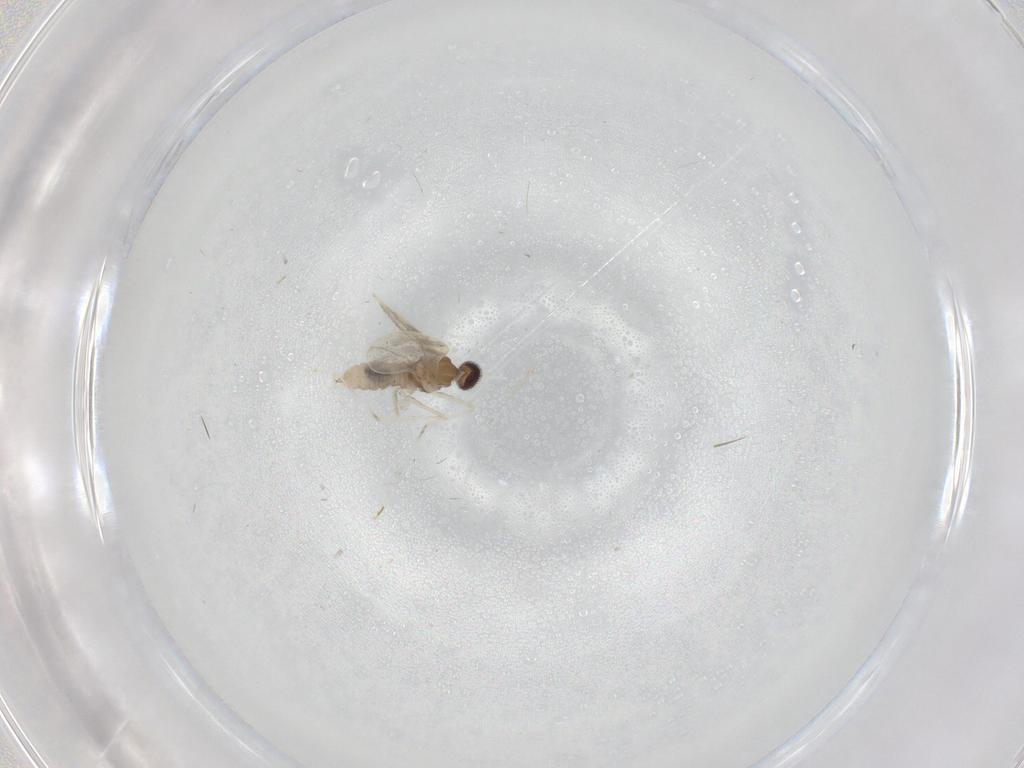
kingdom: Animalia
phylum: Arthropoda
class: Insecta
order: Diptera
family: Cecidomyiidae
